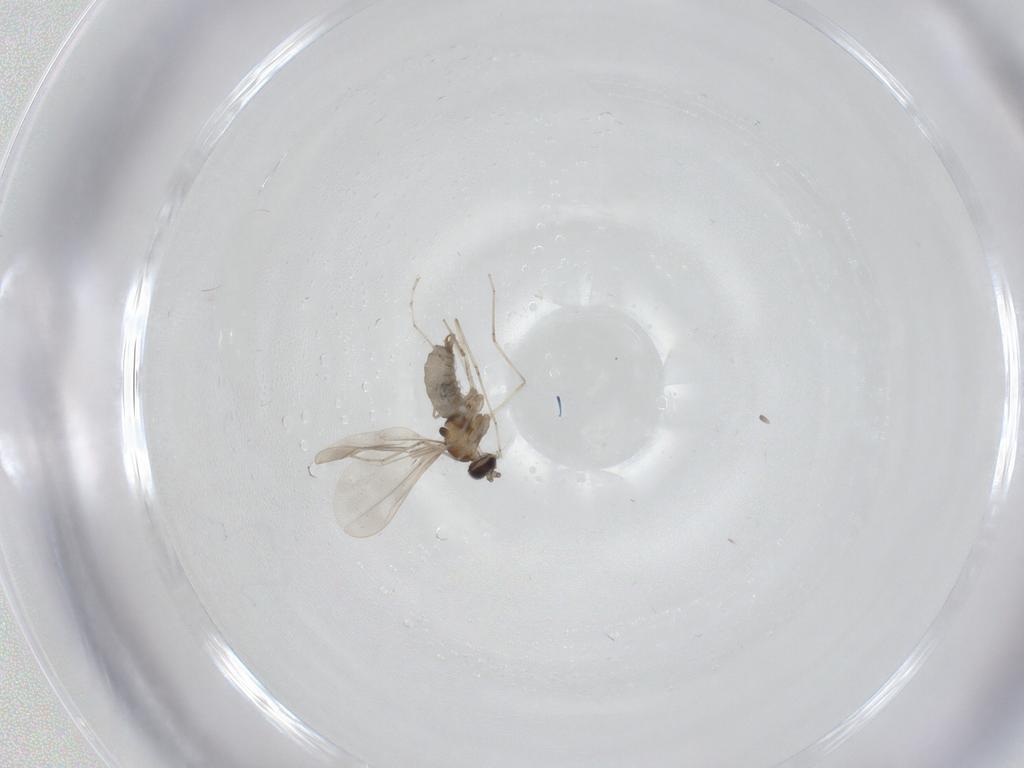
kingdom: Animalia
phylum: Arthropoda
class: Insecta
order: Diptera
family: Cecidomyiidae
